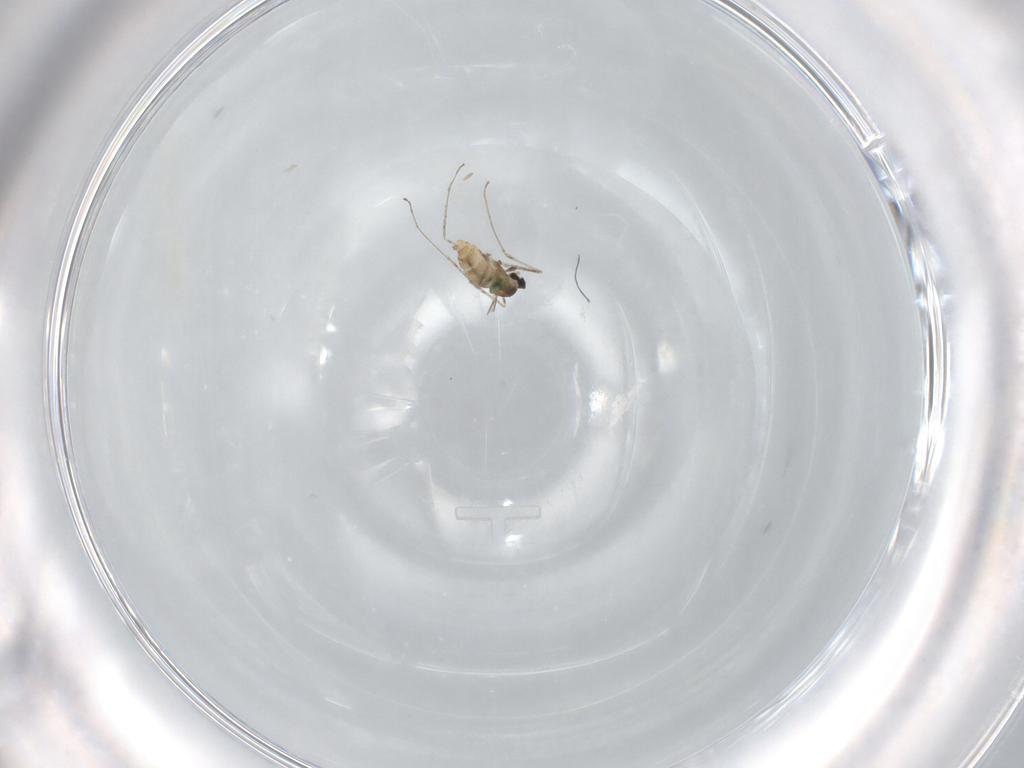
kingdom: Animalia
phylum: Arthropoda
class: Insecta
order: Diptera
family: Cecidomyiidae
